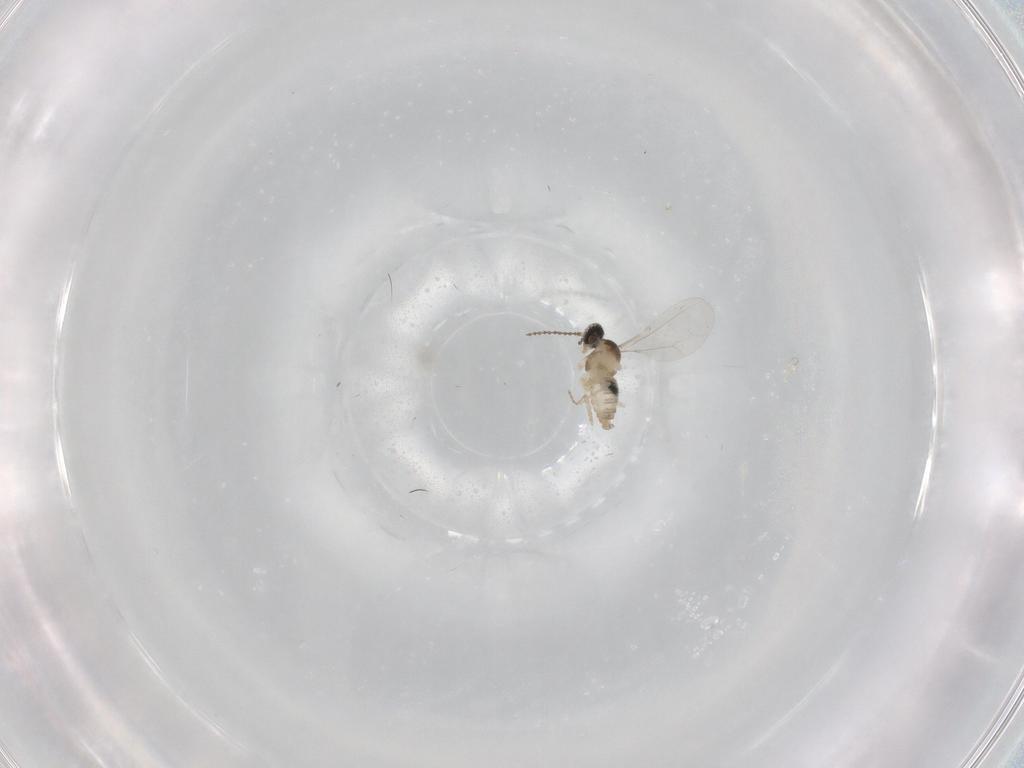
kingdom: Animalia
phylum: Arthropoda
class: Insecta
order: Diptera
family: Cecidomyiidae
